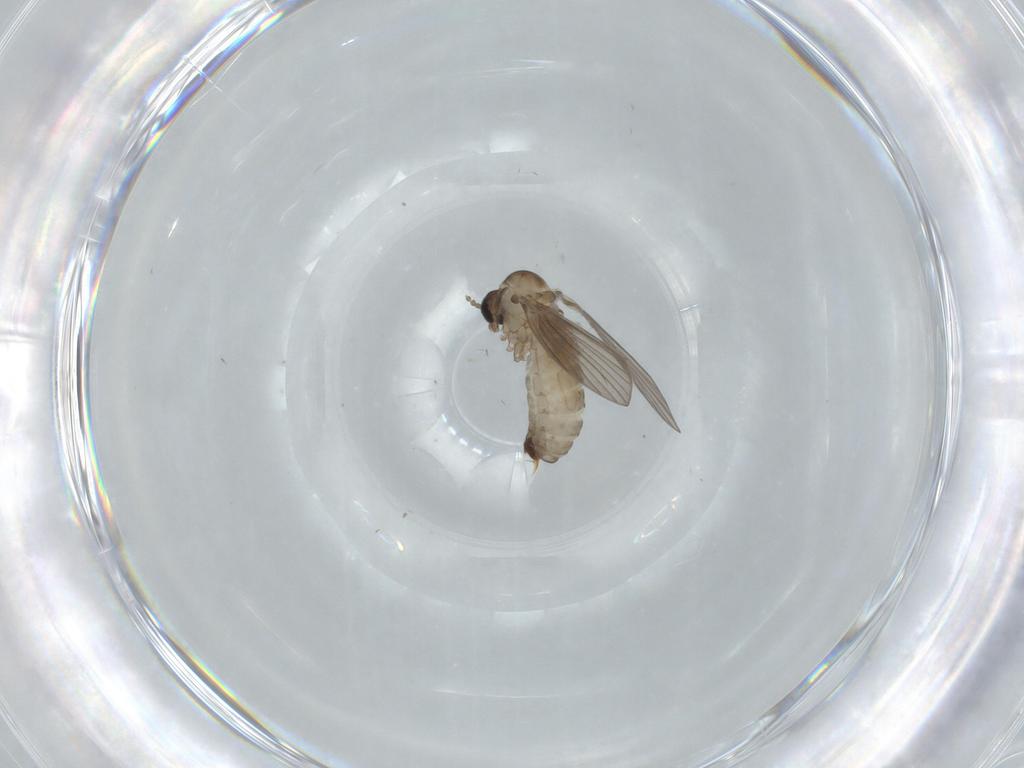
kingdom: Animalia
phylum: Arthropoda
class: Insecta
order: Diptera
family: Psychodidae
